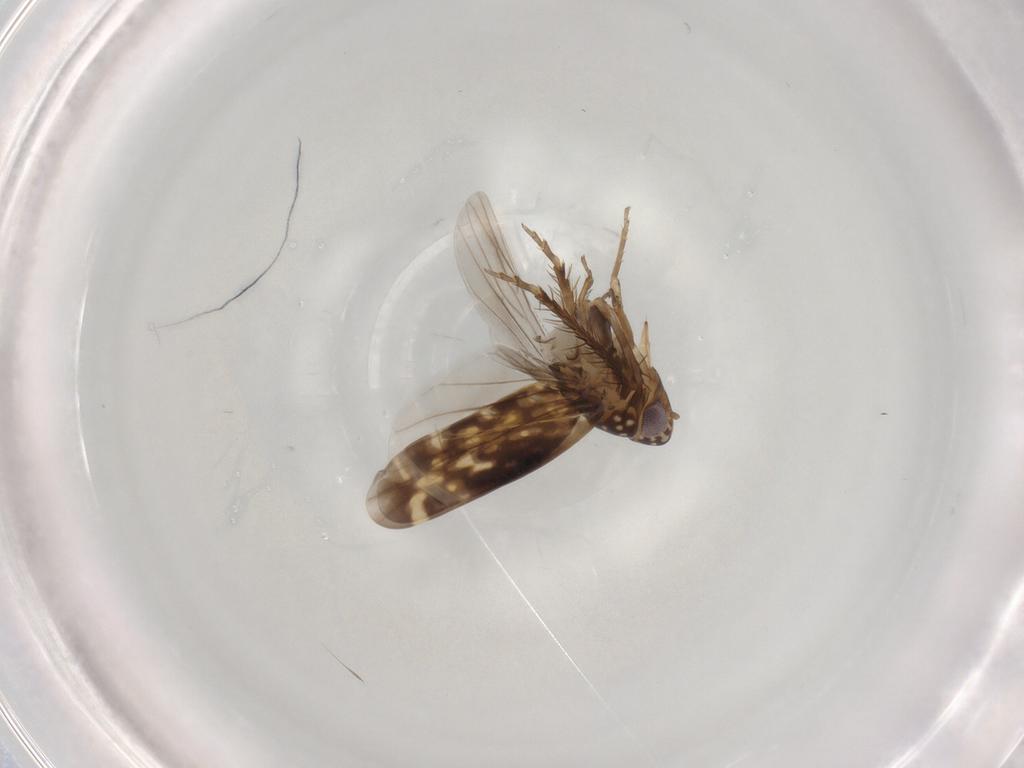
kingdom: Animalia
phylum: Arthropoda
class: Insecta
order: Hemiptera
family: Cicadellidae
